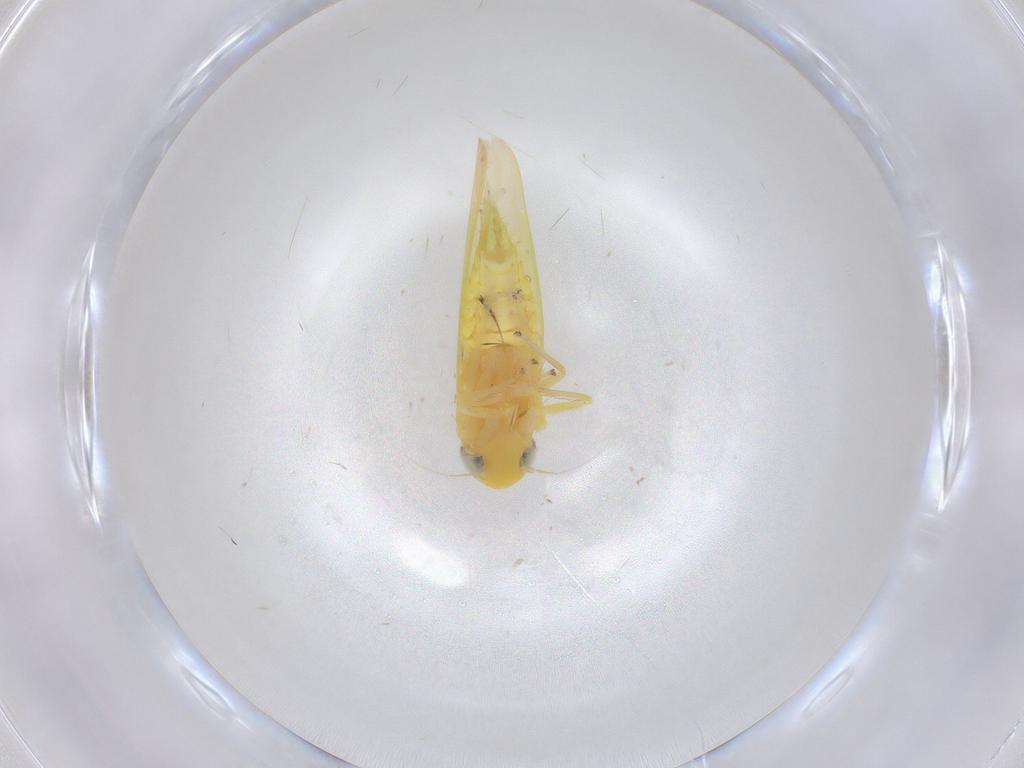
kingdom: Animalia
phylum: Arthropoda
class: Insecta
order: Hemiptera
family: Cicadellidae
